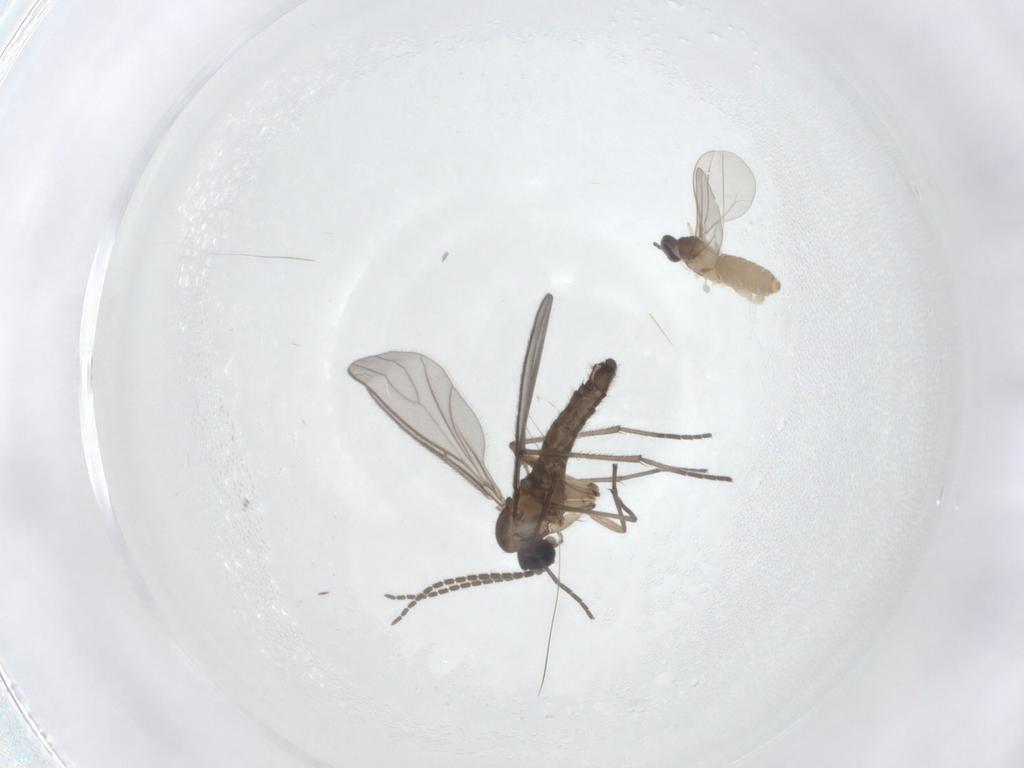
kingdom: Animalia
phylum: Arthropoda
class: Insecta
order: Diptera
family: Cecidomyiidae
